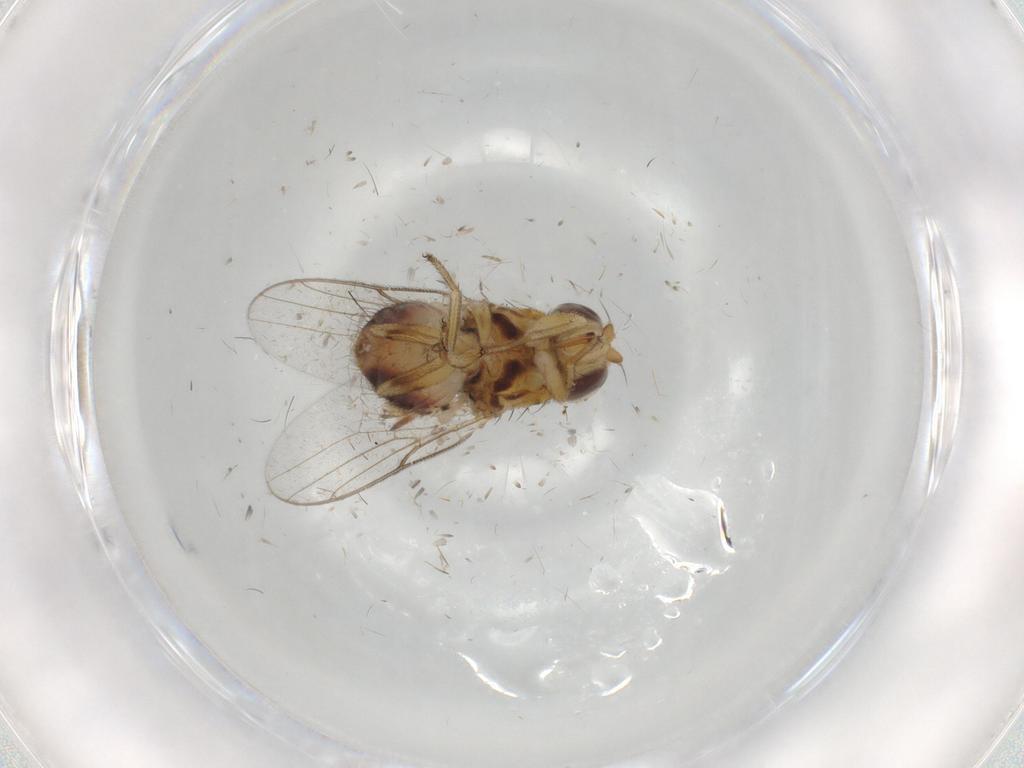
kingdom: Animalia
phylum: Arthropoda
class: Insecta
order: Diptera
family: Chloropidae
